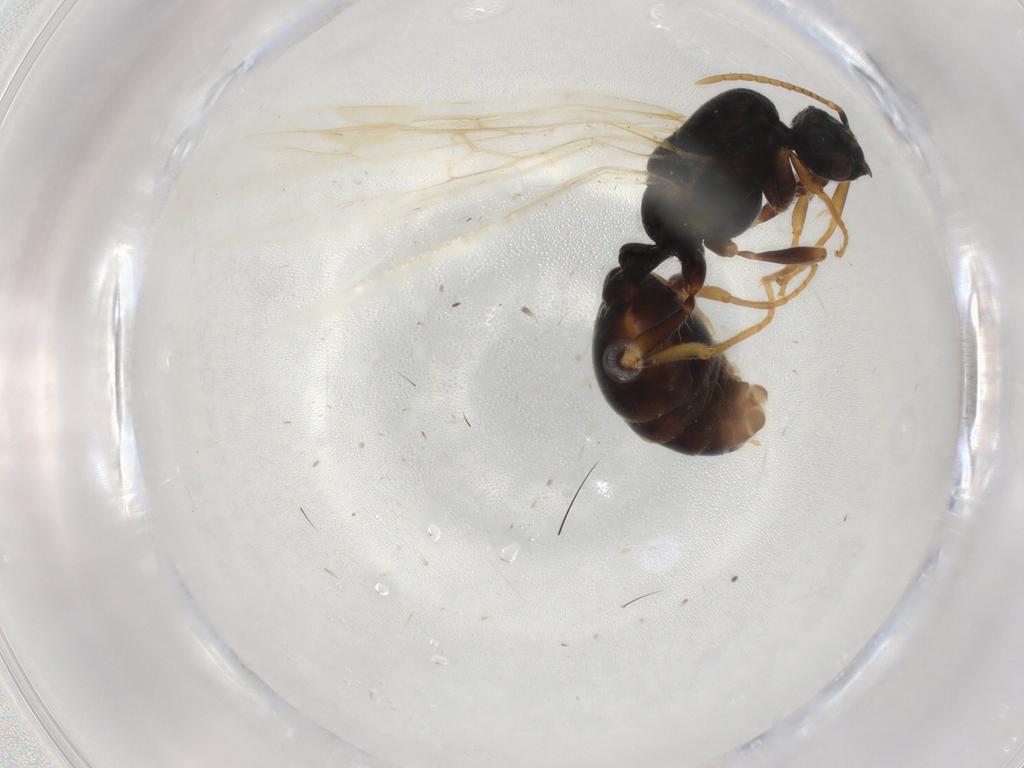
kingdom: Animalia
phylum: Arthropoda
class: Insecta
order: Hymenoptera
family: Formicidae
